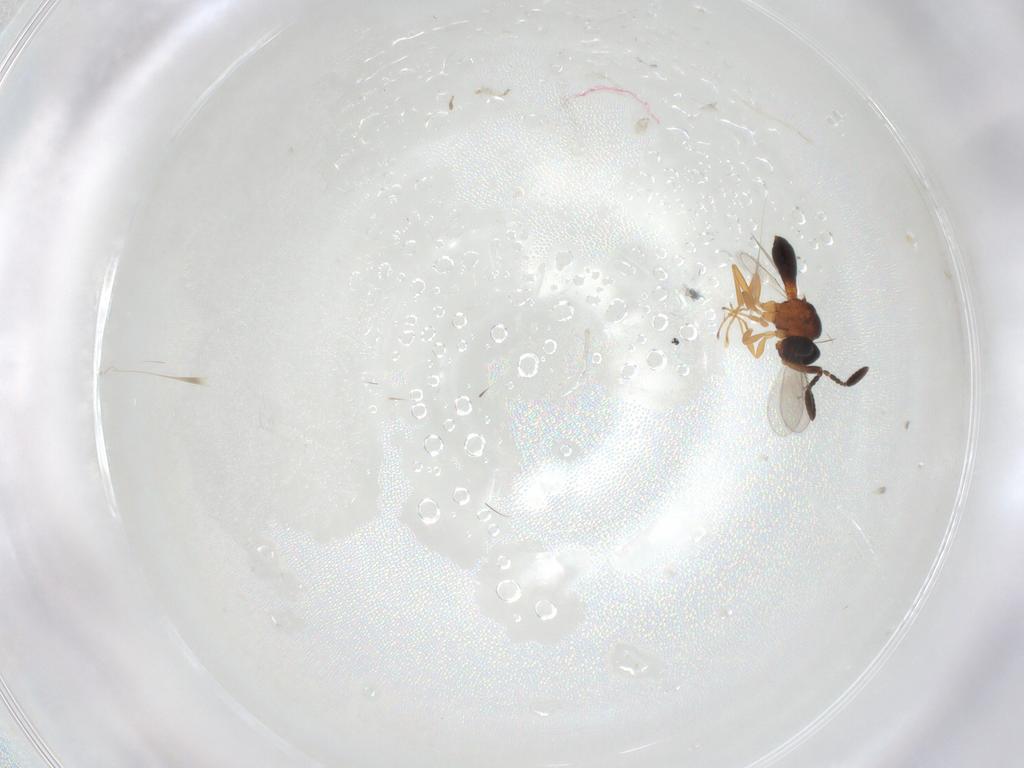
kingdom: Animalia
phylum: Arthropoda
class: Insecta
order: Hymenoptera
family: Scelionidae
